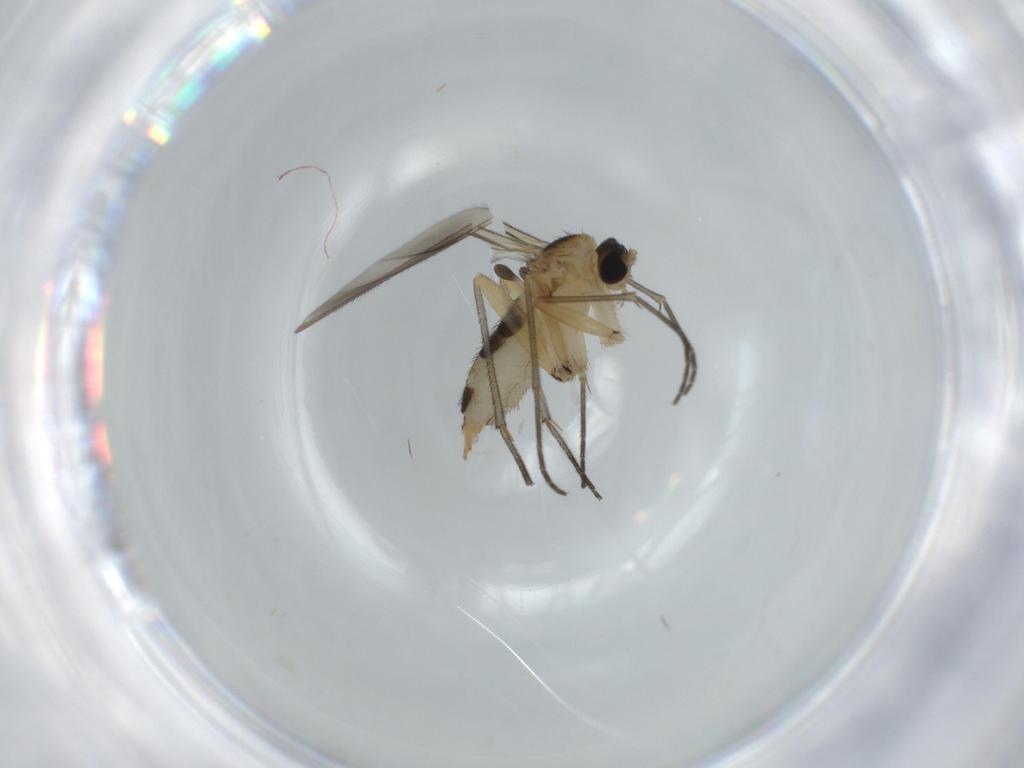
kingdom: Animalia
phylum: Arthropoda
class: Insecta
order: Diptera
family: Sciaridae
